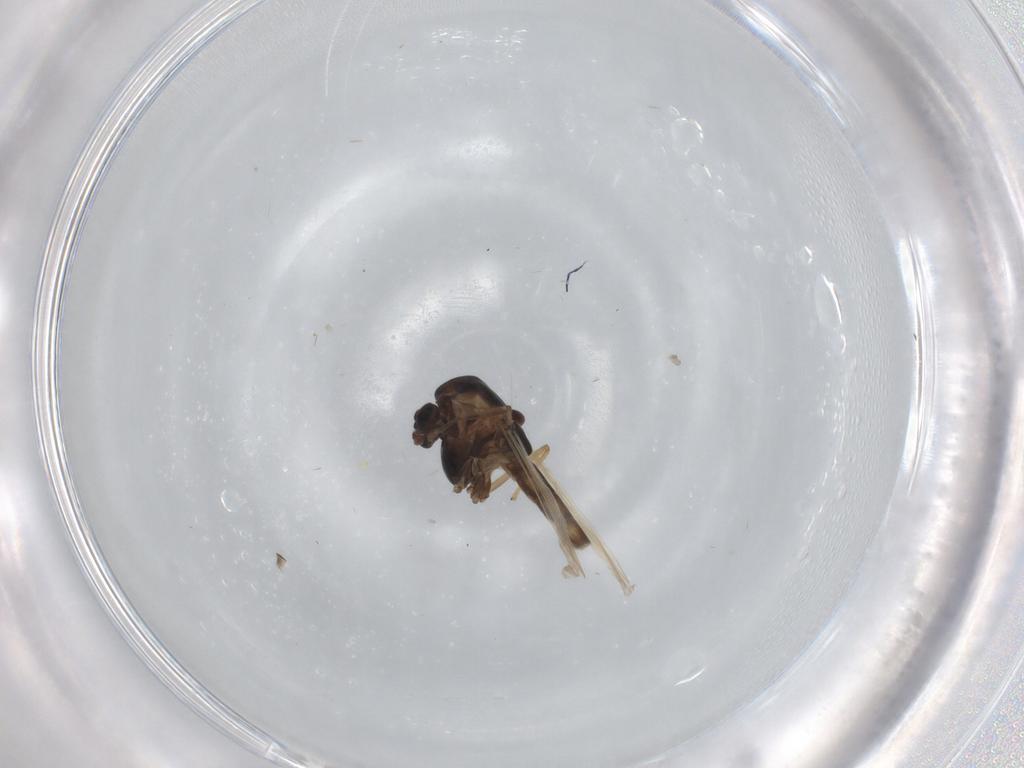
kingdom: Animalia
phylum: Arthropoda
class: Insecta
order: Diptera
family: Chironomidae
